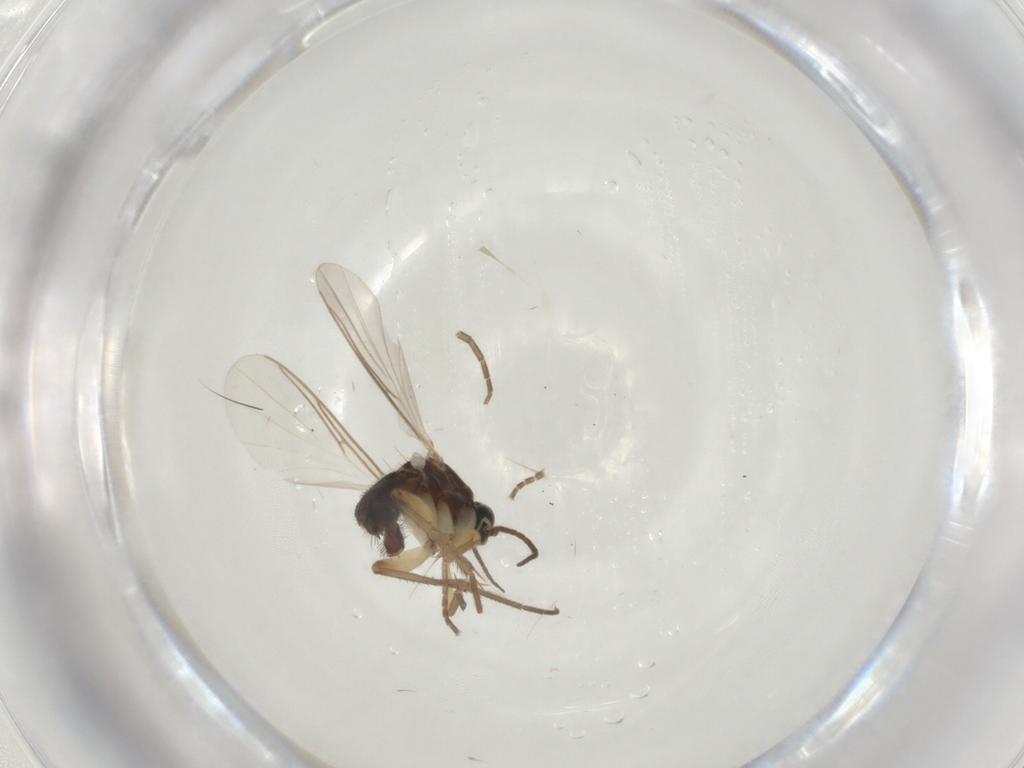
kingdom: Animalia
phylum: Arthropoda
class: Insecta
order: Diptera
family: Mycetophilidae
